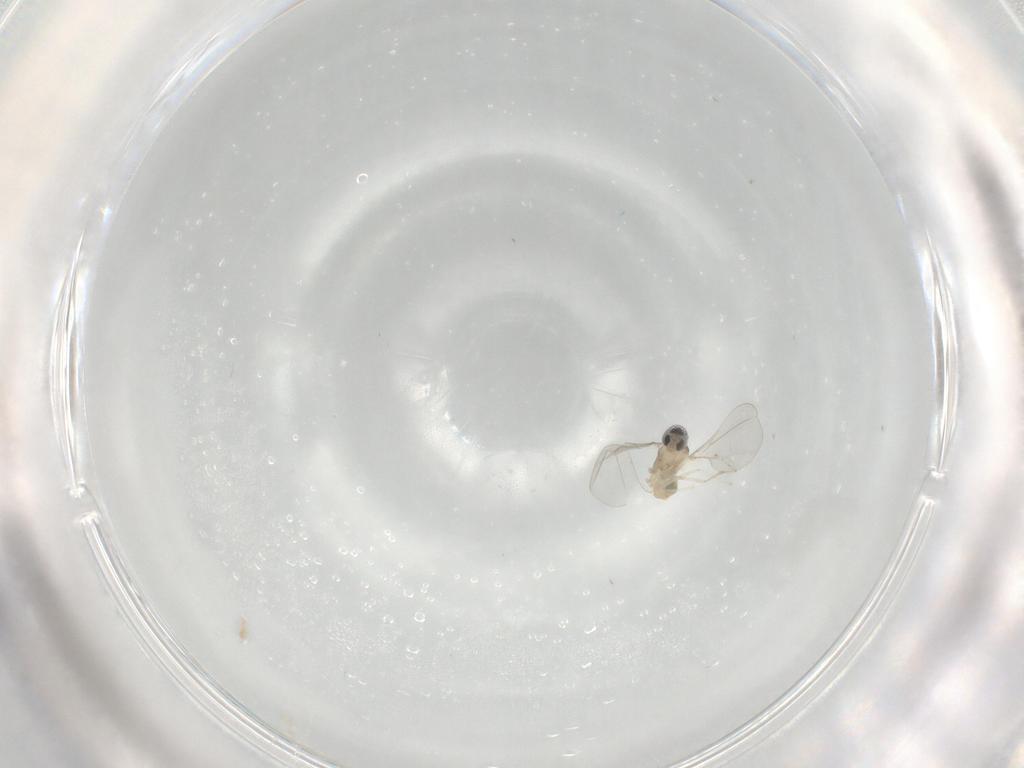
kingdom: Animalia
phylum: Arthropoda
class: Insecta
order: Diptera
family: Cecidomyiidae
